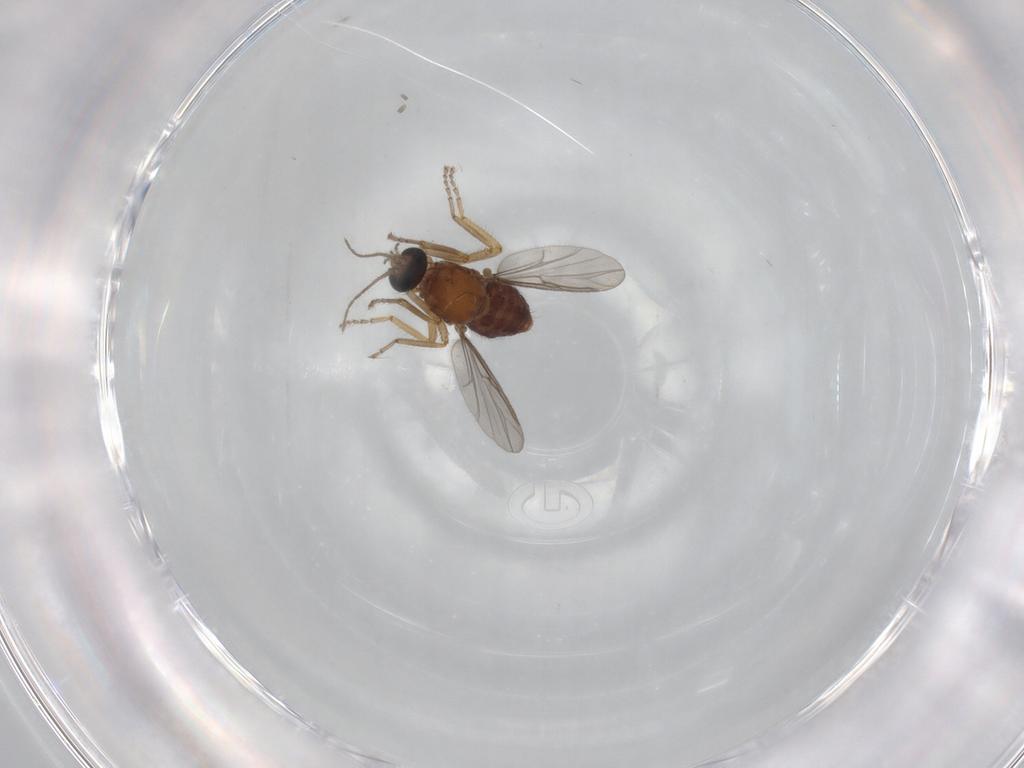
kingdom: Animalia
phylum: Arthropoda
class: Insecta
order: Diptera
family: Ceratopogonidae
